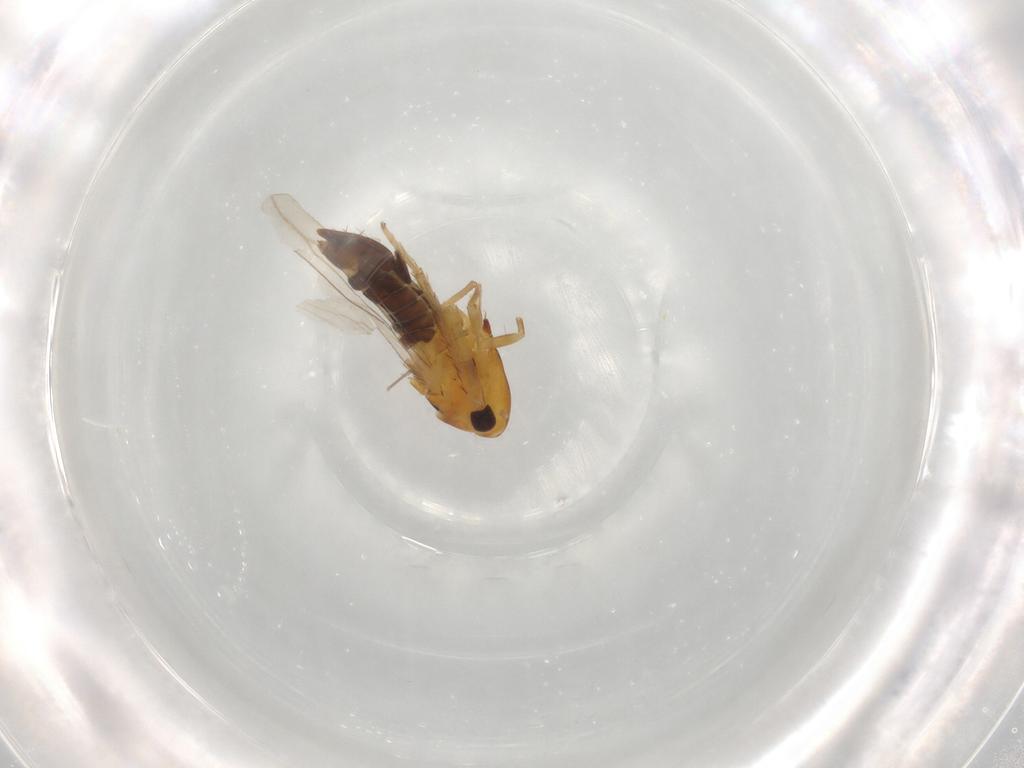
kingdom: Animalia
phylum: Arthropoda
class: Insecta
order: Hemiptera
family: Cicadellidae
